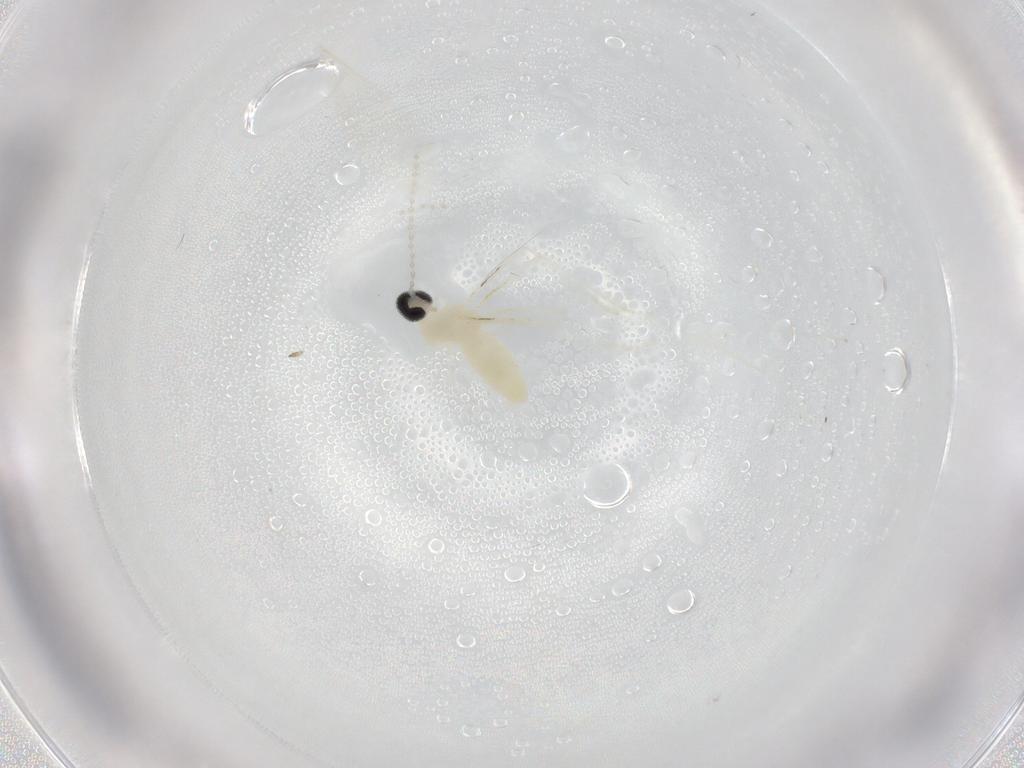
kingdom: Animalia
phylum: Arthropoda
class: Insecta
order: Diptera
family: Cecidomyiidae
